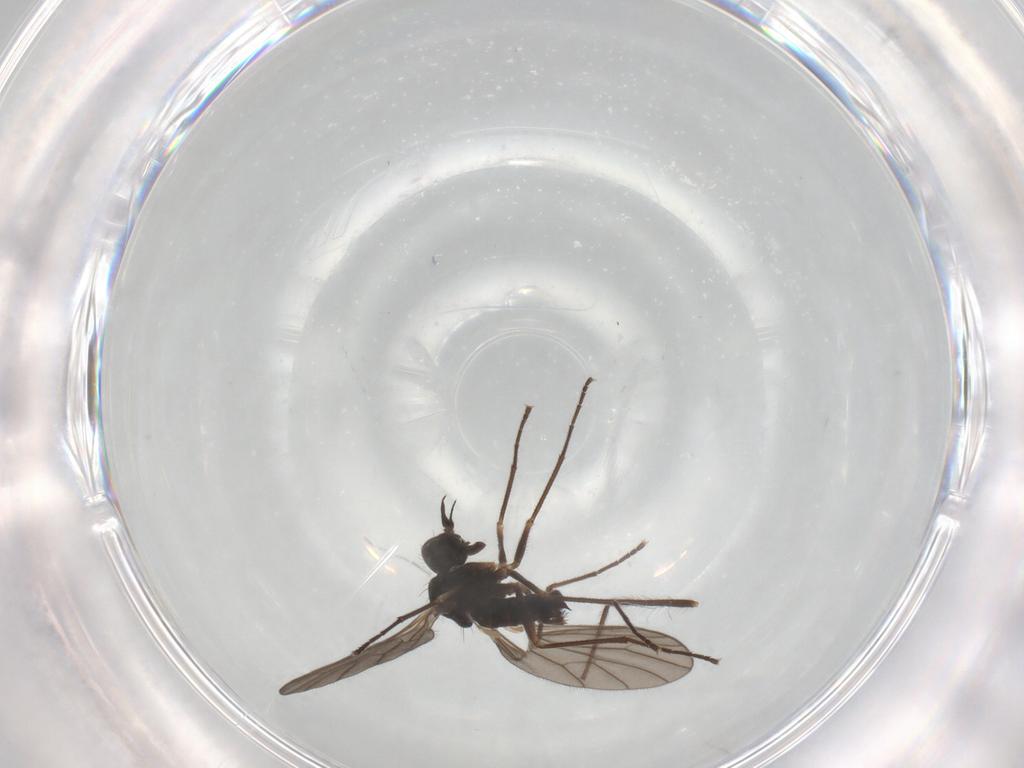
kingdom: Animalia
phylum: Arthropoda
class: Insecta
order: Diptera
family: Empididae
